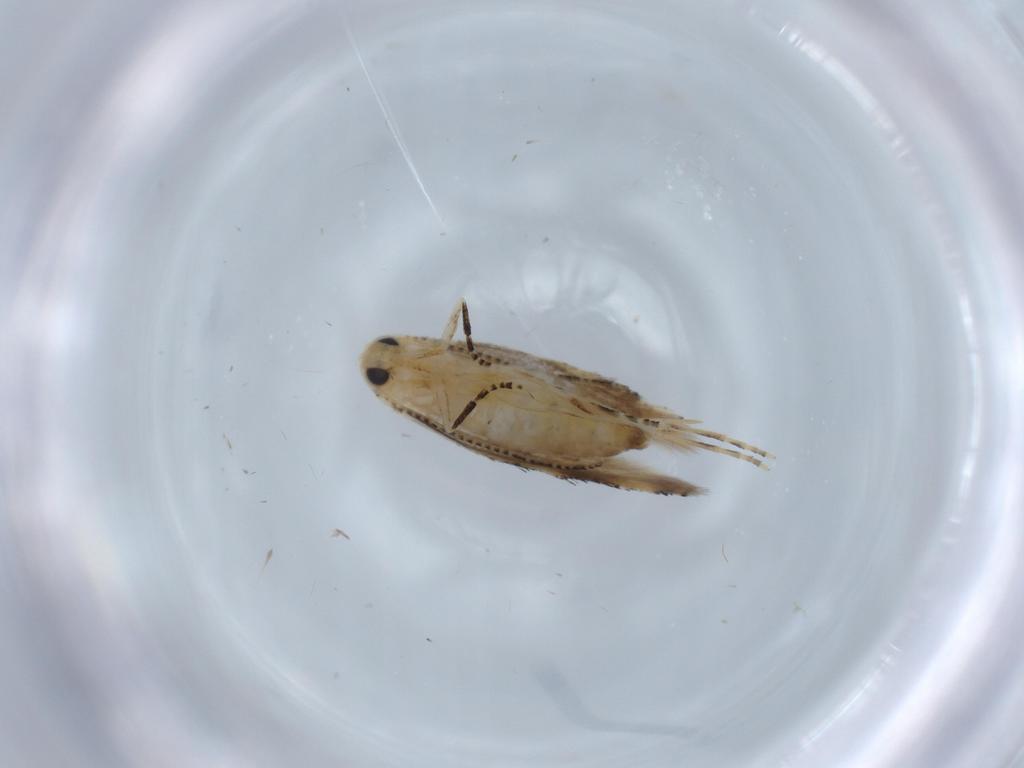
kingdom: Animalia
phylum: Arthropoda
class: Insecta
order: Lepidoptera
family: Bucculatricidae
